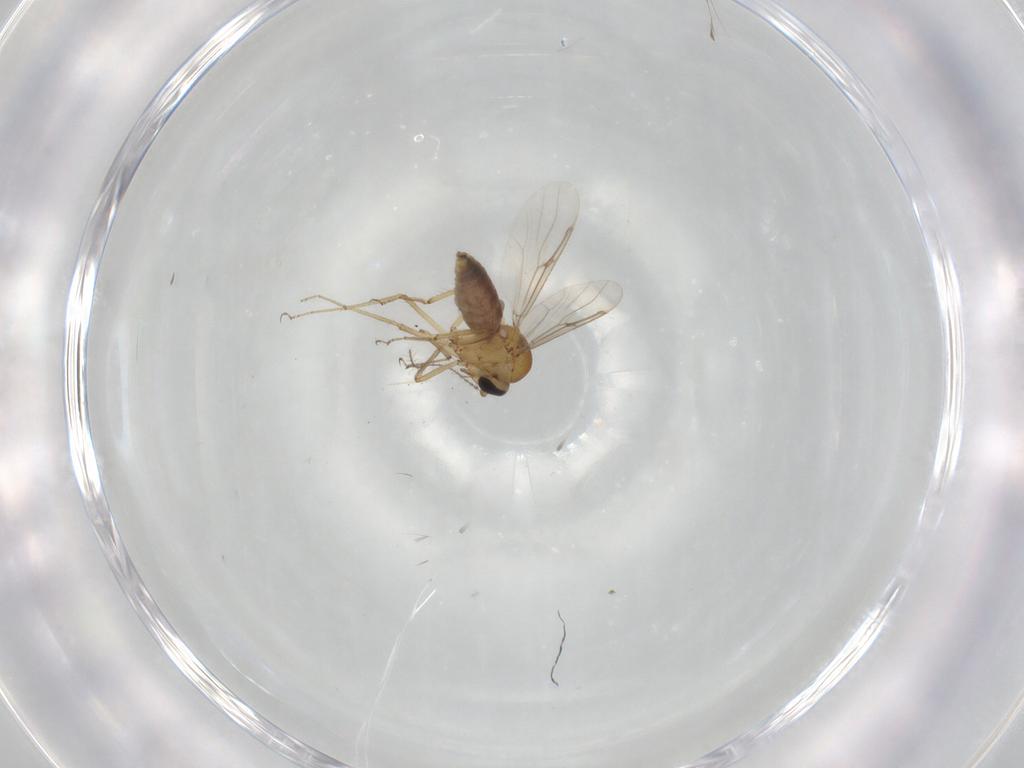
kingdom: Animalia
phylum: Arthropoda
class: Insecta
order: Diptera
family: Ceratopogonidae
